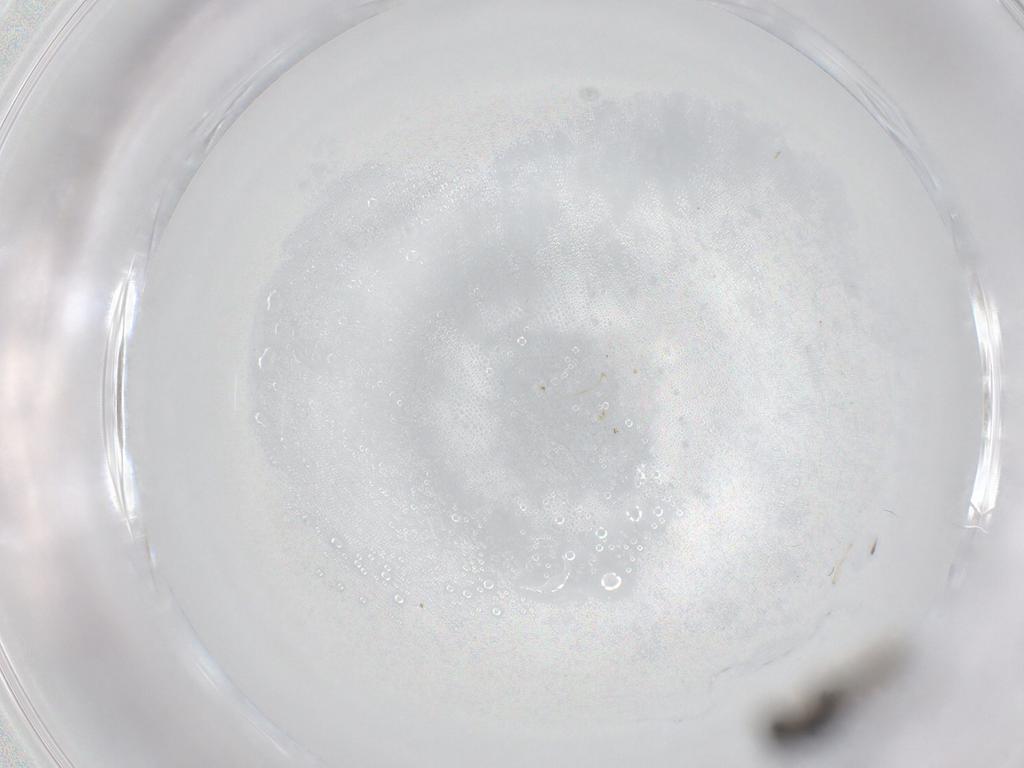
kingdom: Animalia
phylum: Arthropoda
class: Insecta
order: Diptera
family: Cecidomyiidae
